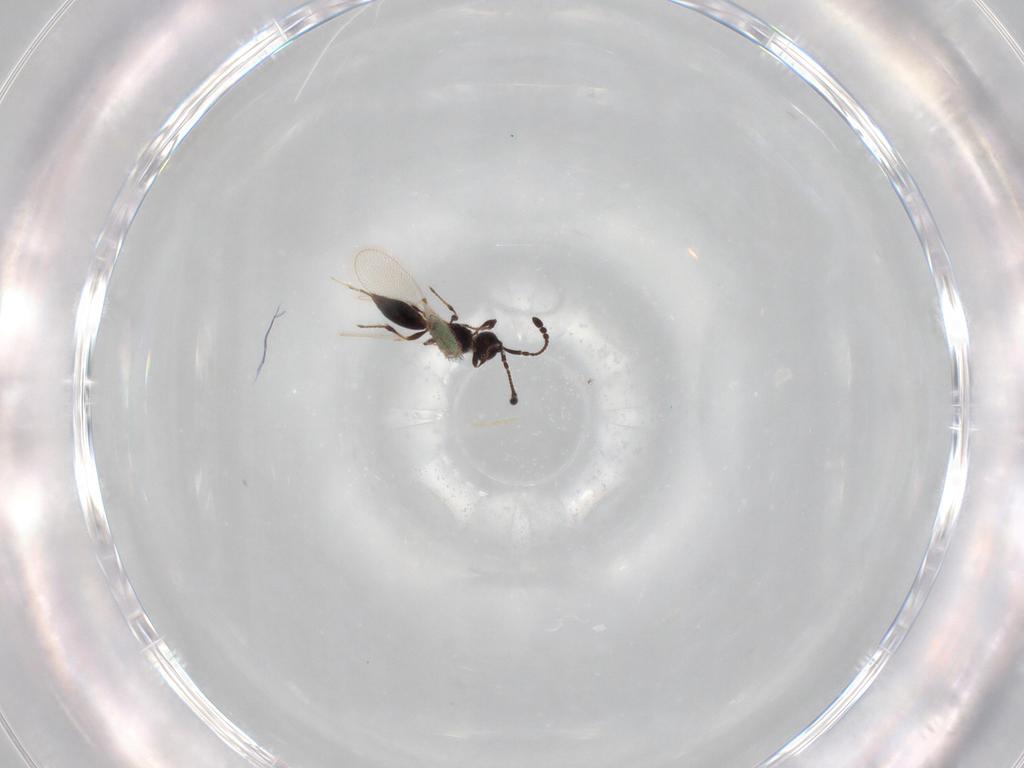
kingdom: Animalia
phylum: Arthropoda
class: Insecta
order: Hymenoptera
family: Diapriidae
